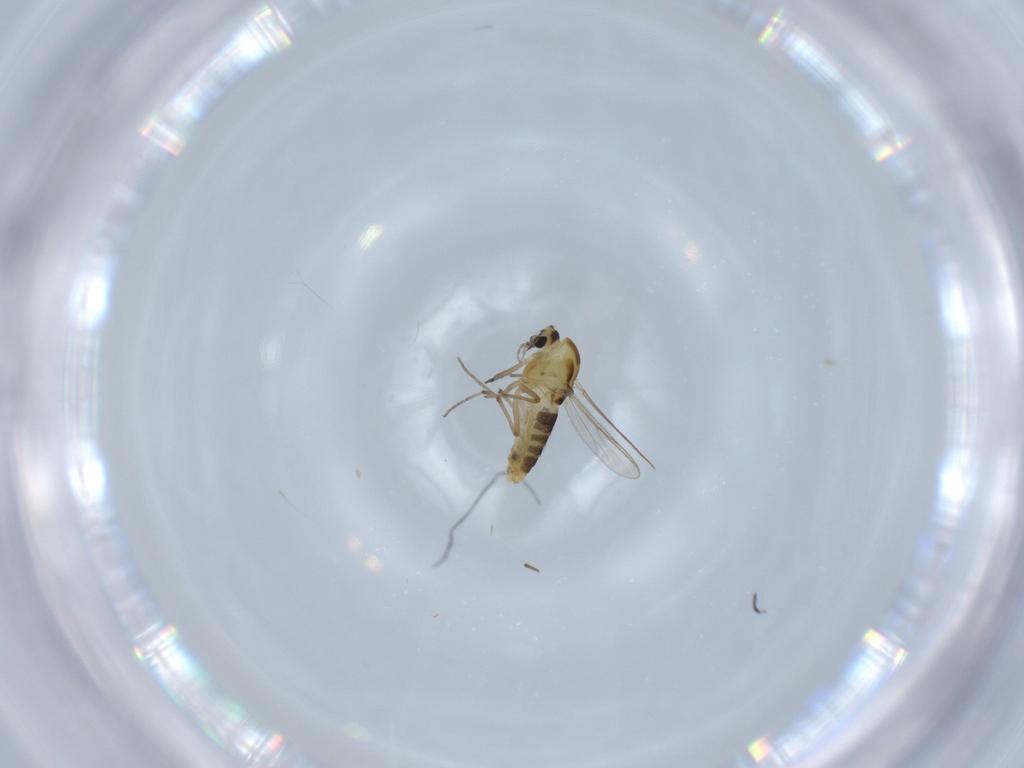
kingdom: Animalia
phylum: Arthropoda
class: Insecta
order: Diptera
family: Chironomidae
